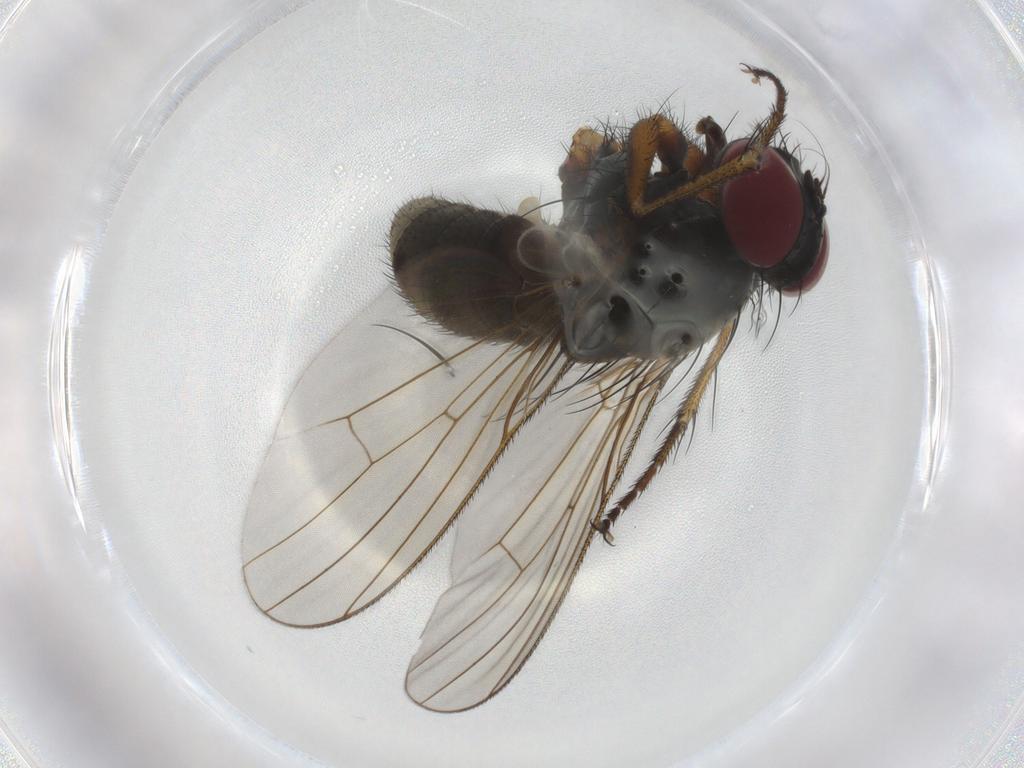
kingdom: Animalia
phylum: Arthropoda
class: Insecta
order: Diptera
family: Muscidae
